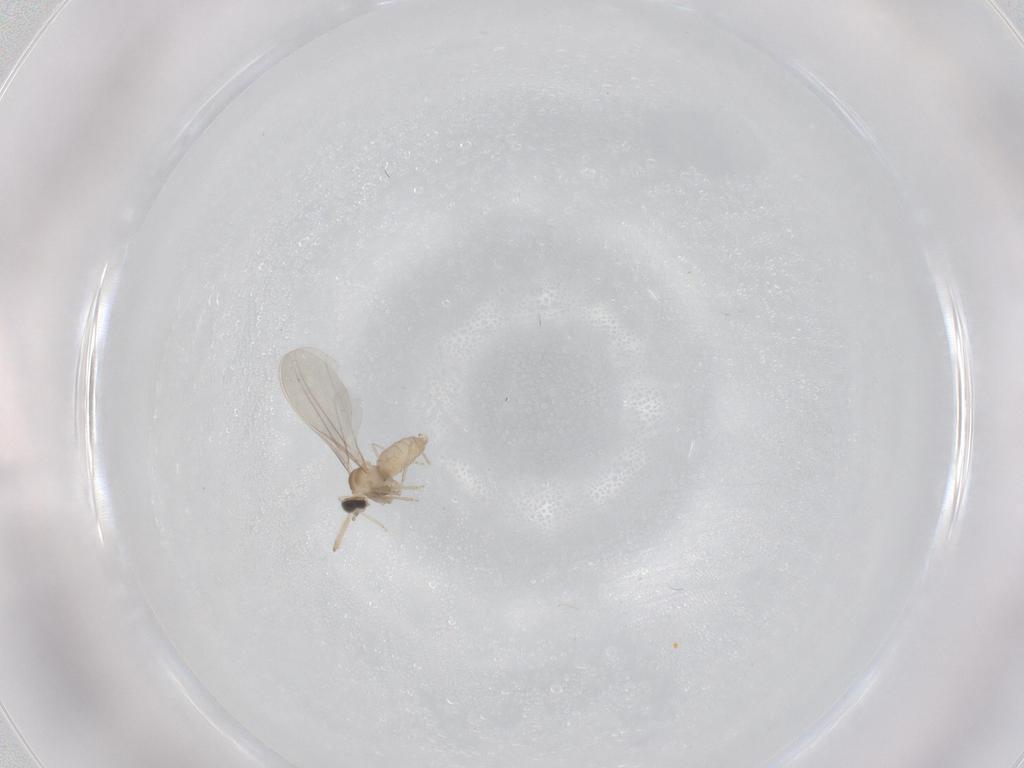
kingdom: Animalia
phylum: Arthropoda
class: Insecta
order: Diptera
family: Cecidomyiidae
